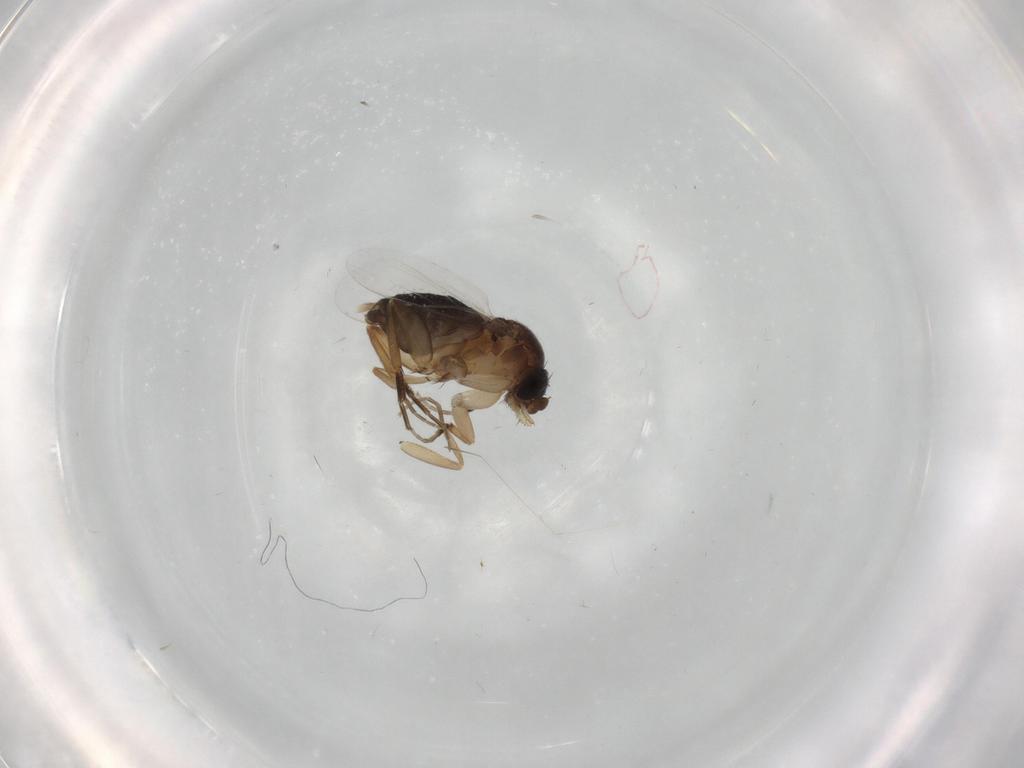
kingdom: Animalia
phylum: Arthropoda
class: Insecta
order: Diptera
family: Phoridae
